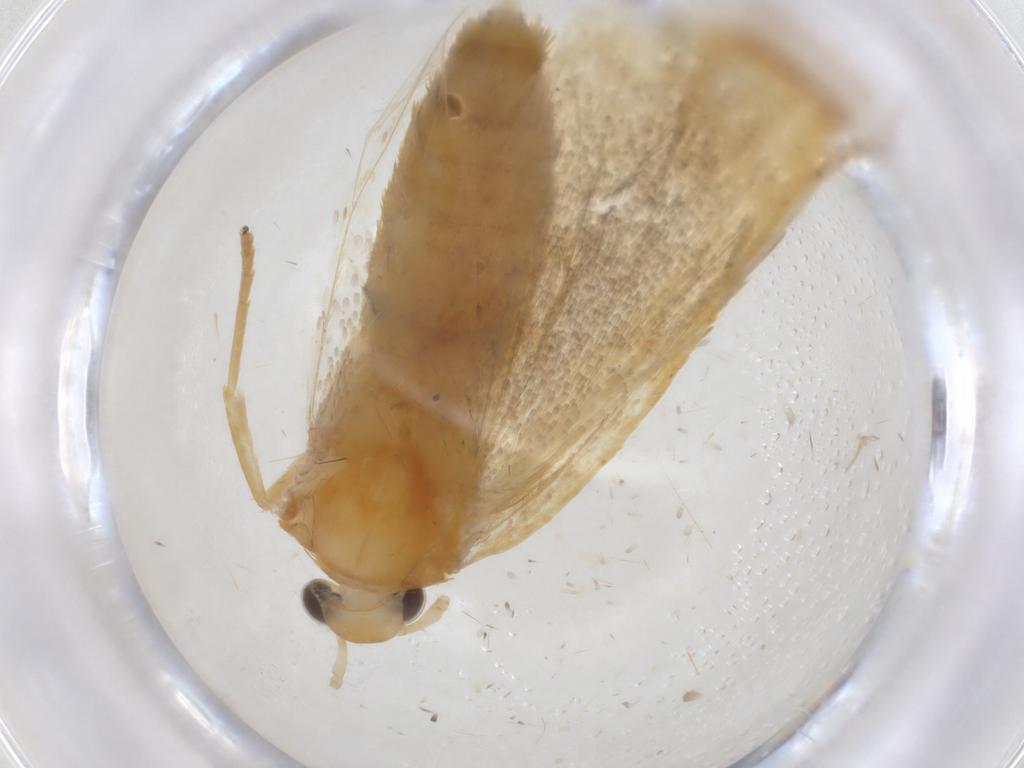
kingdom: Animalia
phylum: Arthropoda
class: Insecta
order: Lepidoptera
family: Lecithoceridae
